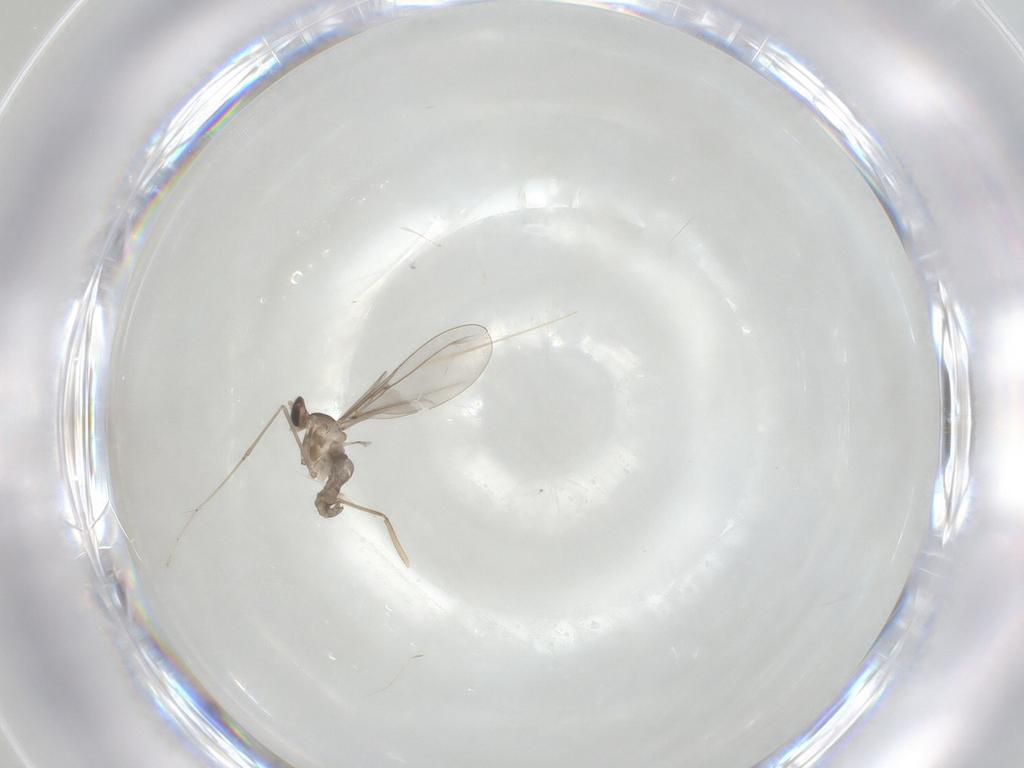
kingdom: Animalia
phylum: Arthropoda
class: Insecta
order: Diptera
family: Cecidomyiidae
